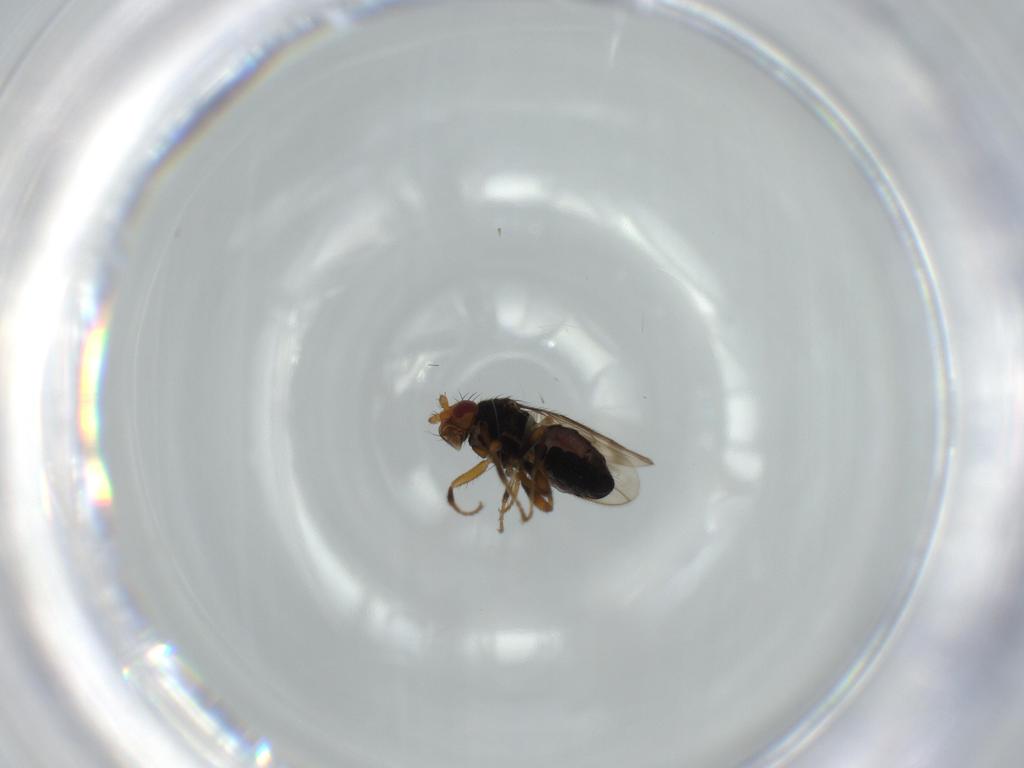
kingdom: Animalia
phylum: Arthropoda
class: Insecta
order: Diptera
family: Sphaeroceridae
